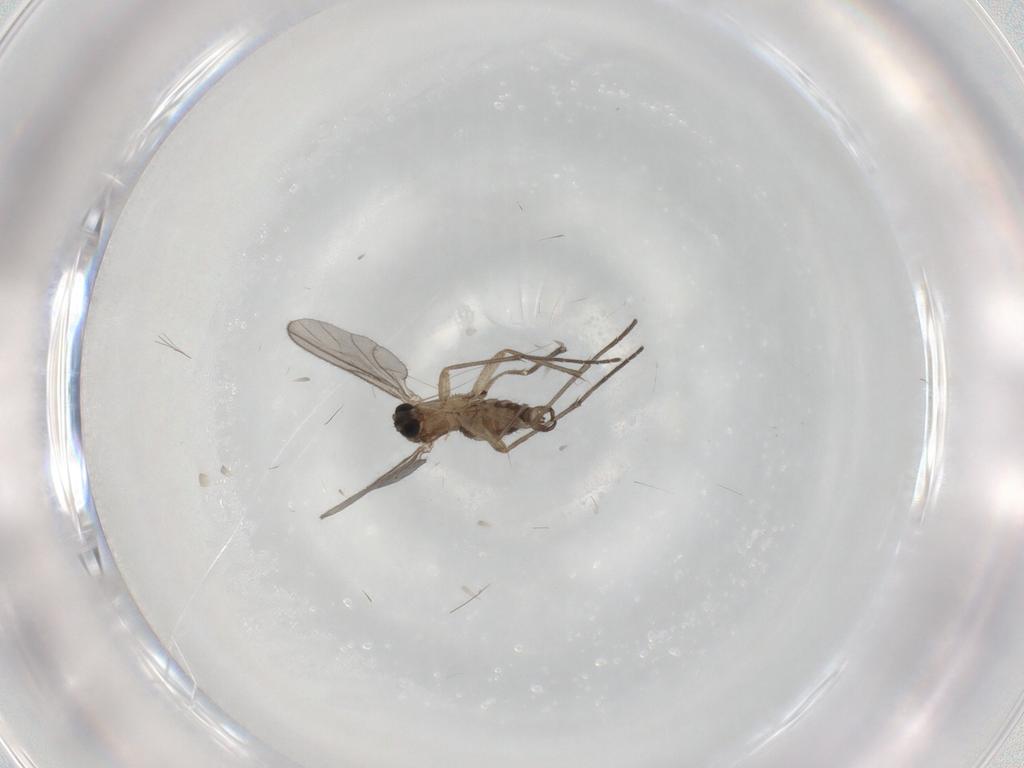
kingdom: Animalia
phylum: Arthropoda
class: Insecta
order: Diptera
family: Sciaridae
